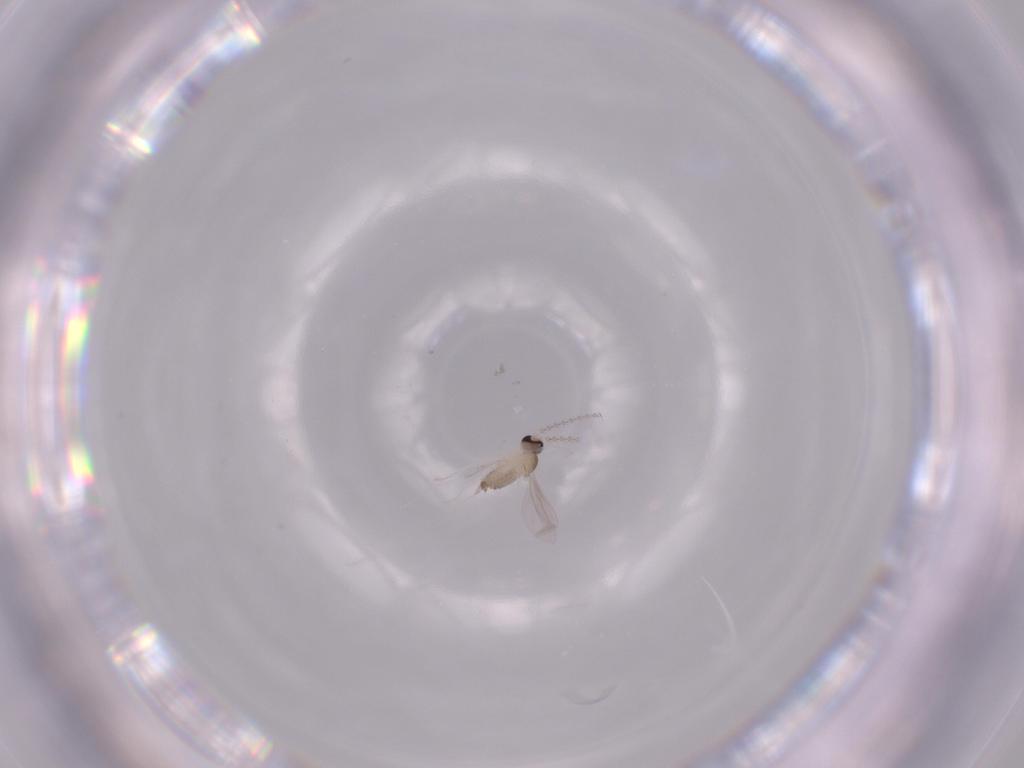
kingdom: Animalia
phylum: Arthropoda
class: Insecta
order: Diptera
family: Cecidomyiidae
